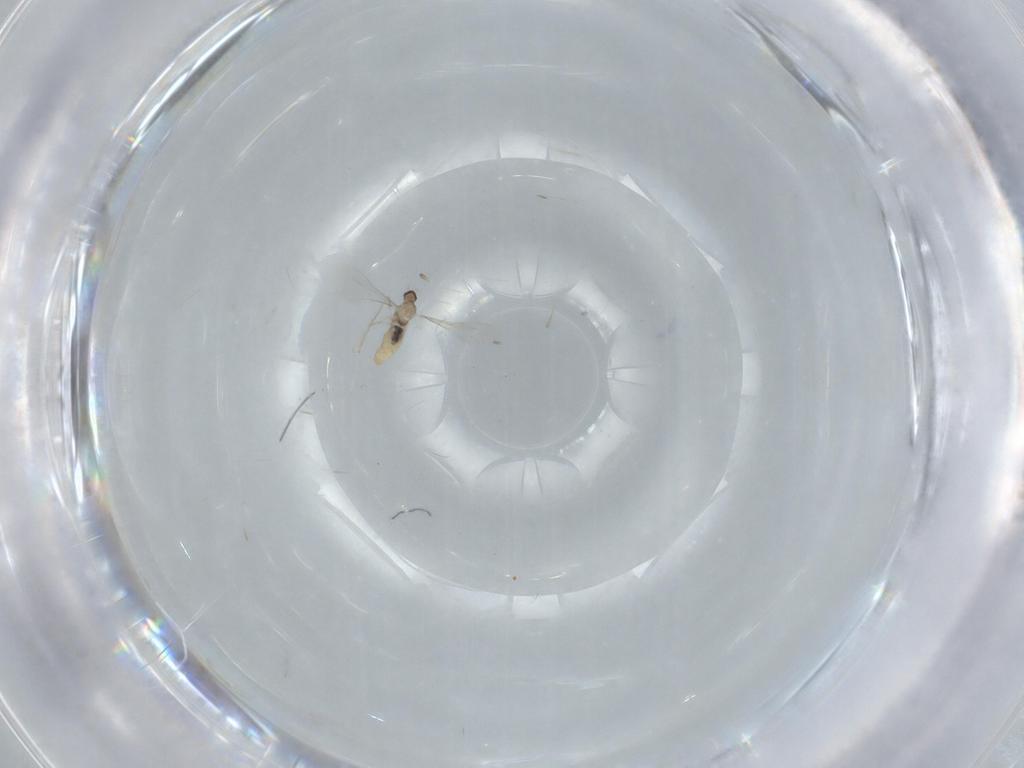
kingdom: Animalia
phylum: Arthropoda
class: Insecta
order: Diptera
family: Cecidomyiidae
